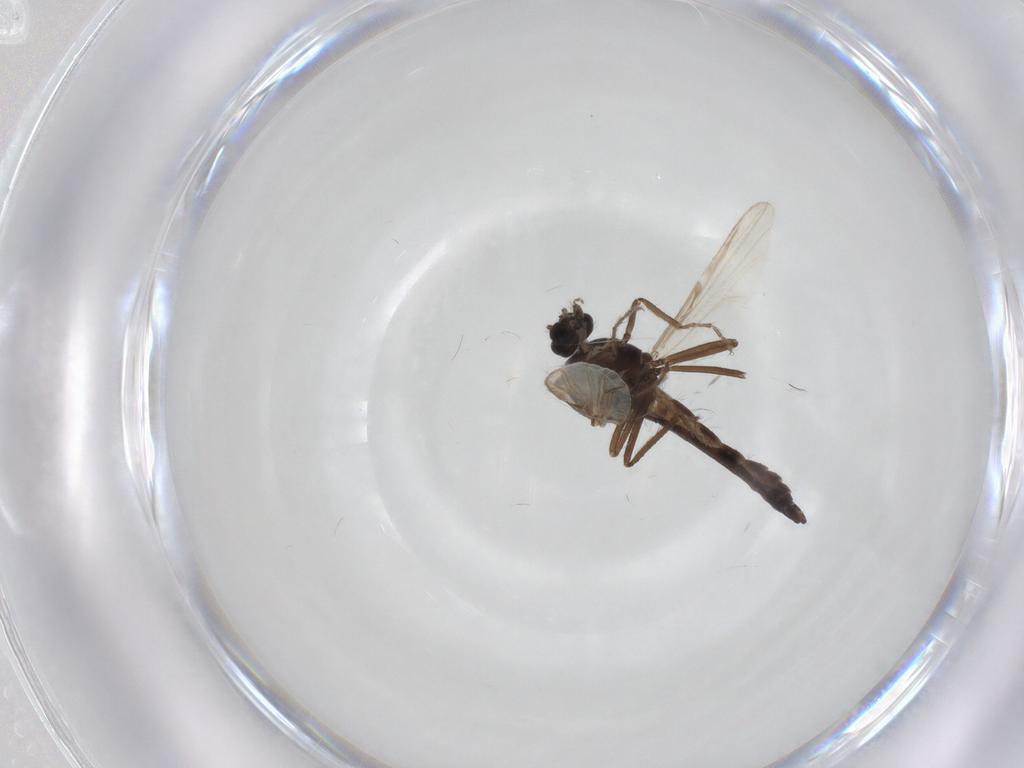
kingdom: Animalia
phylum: Arthropoda
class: Insecta
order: Diptera
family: Ceratopogonidae
